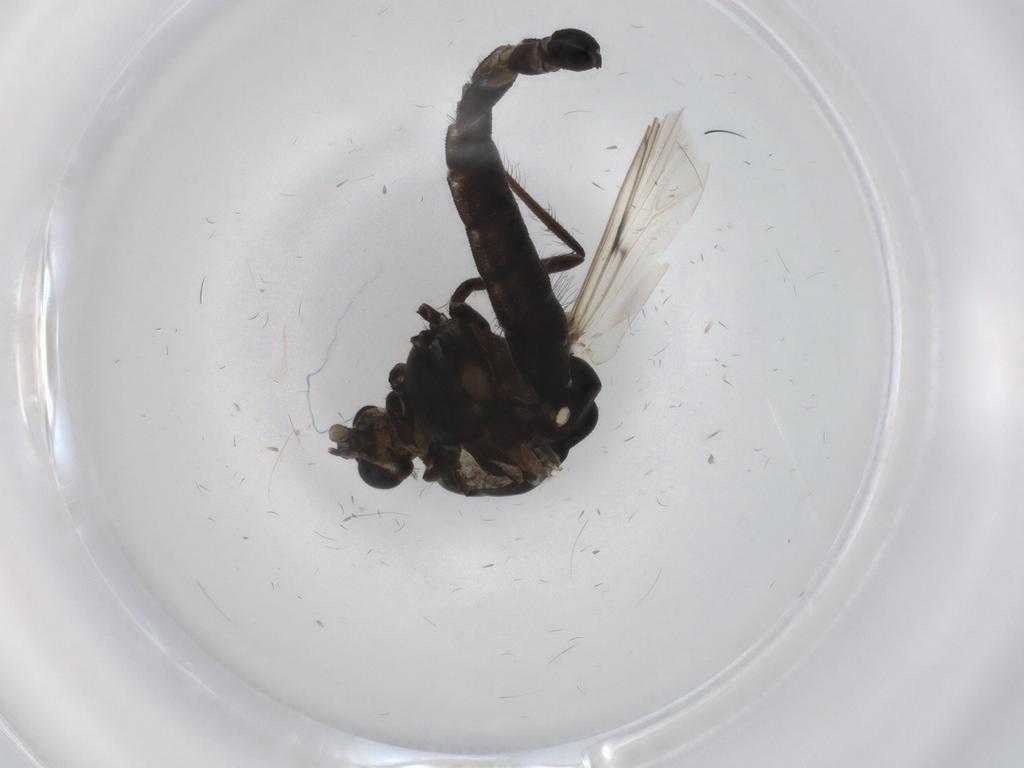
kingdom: Animalia
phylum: Arthropoda
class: Insecta
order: Diptera
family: Chironomidae
